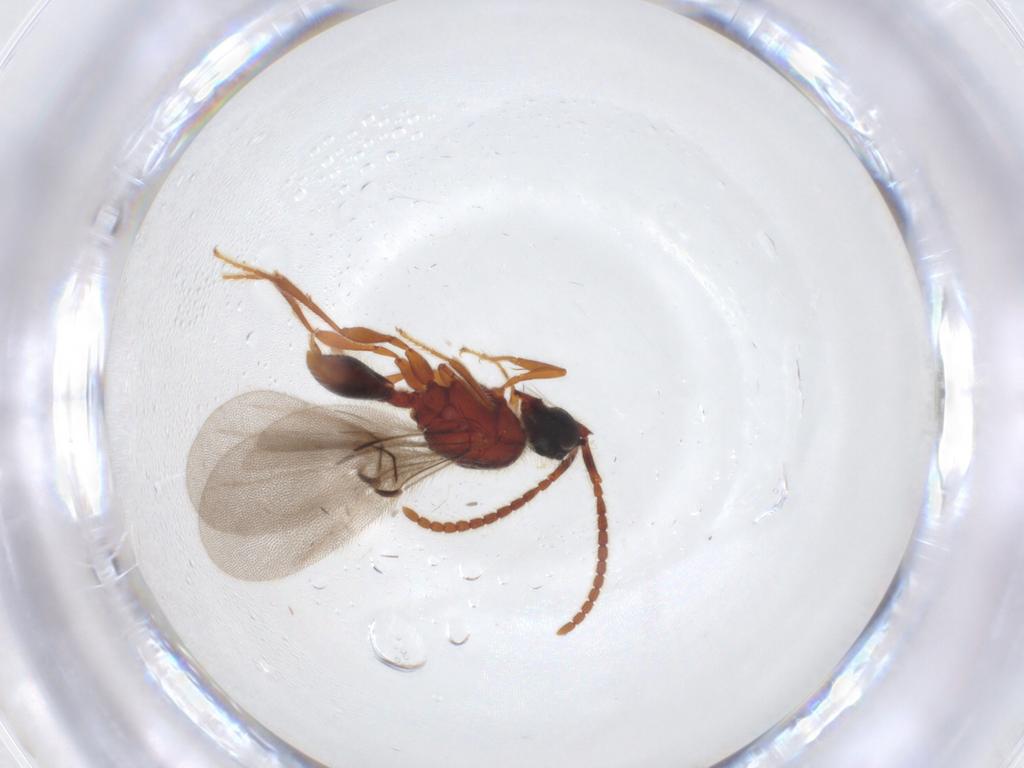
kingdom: Animalia
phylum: Arthropoda
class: Insecta
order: Hymenoptera
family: Diapriidae
